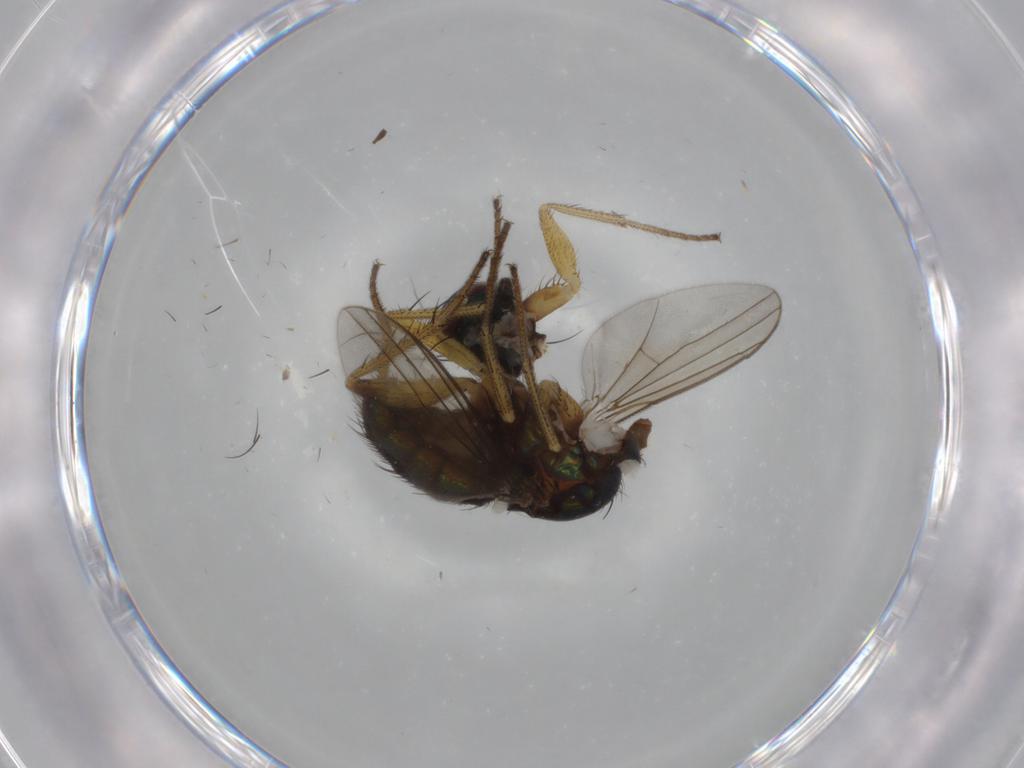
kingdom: Animalia
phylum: Arthropoda
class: Insecta
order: Diptera
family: Dolichopodidae
